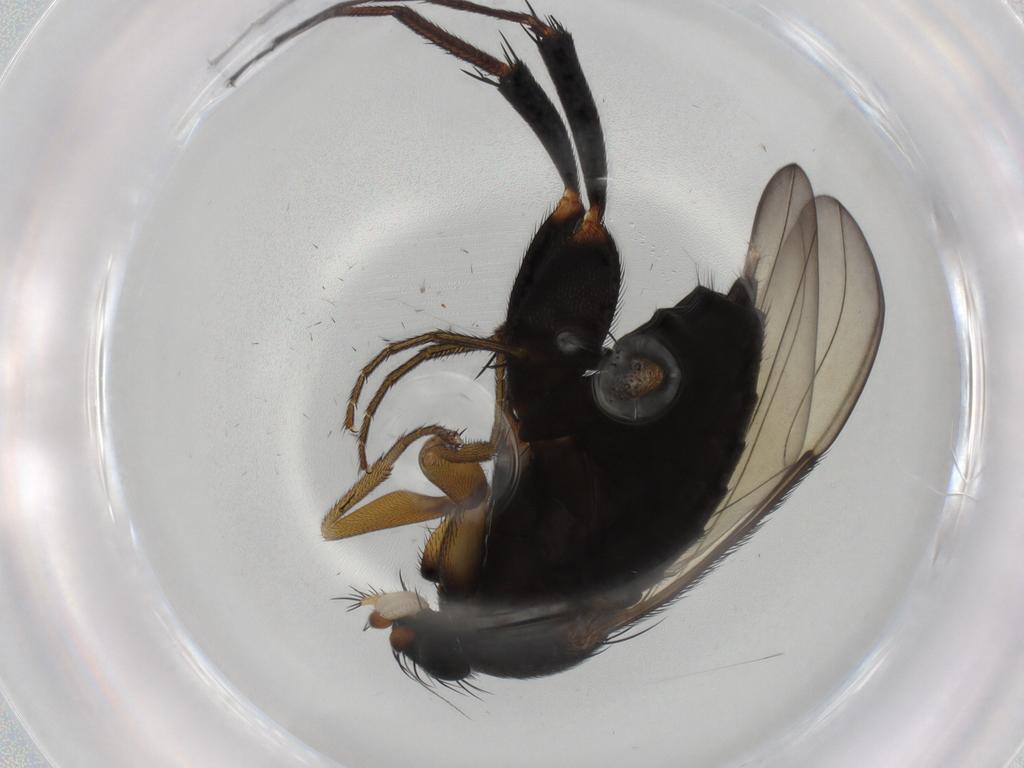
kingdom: Animalia
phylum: Arthropoda
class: Insecta
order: Diptera
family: Phoridae
